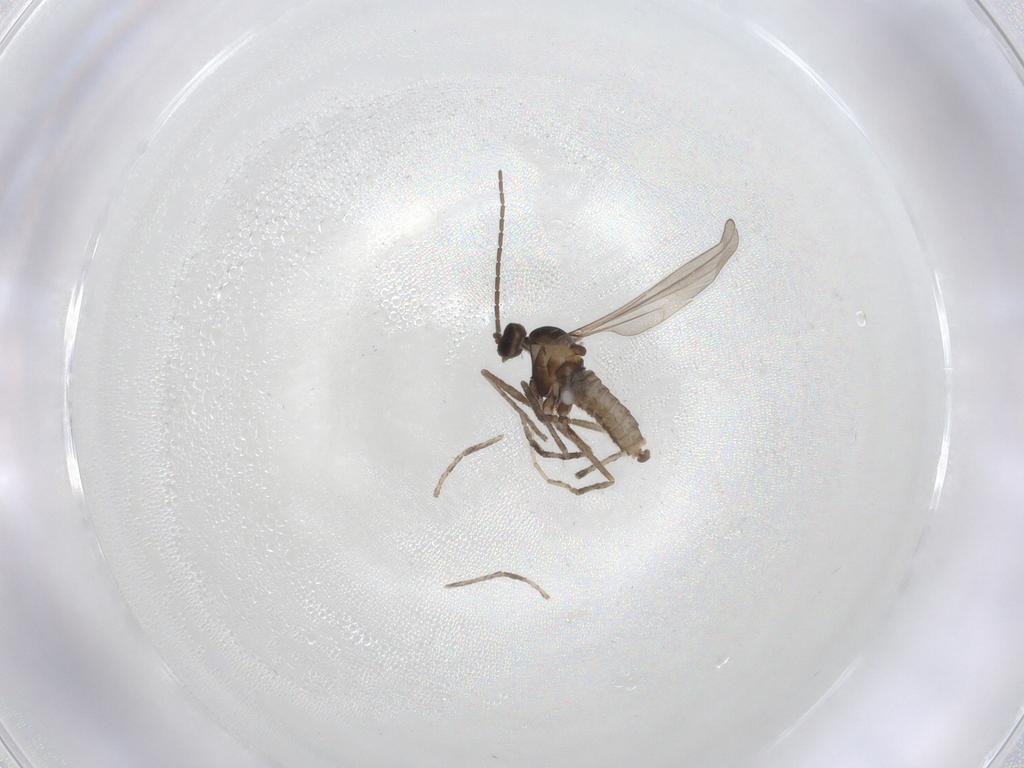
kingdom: Animalia
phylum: Arthropoda
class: Insecta
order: Diptera
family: Cecidomyiidae
